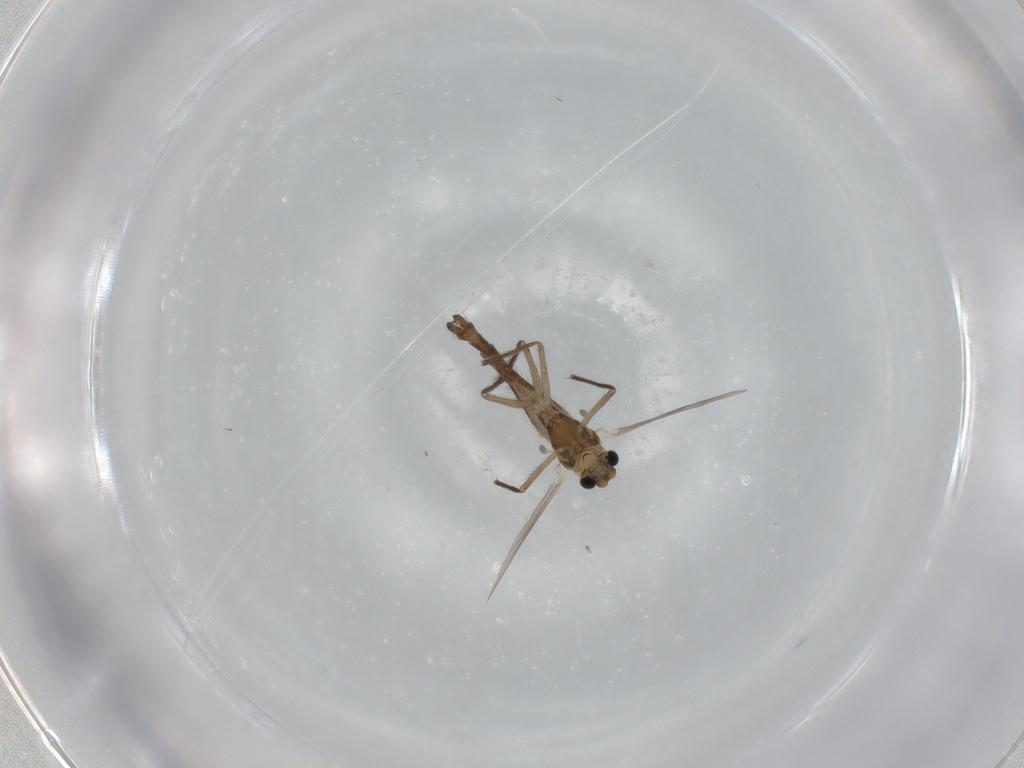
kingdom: Animalia
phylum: Arthropoda
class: Insecta
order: Diptera
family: Chironomidae
